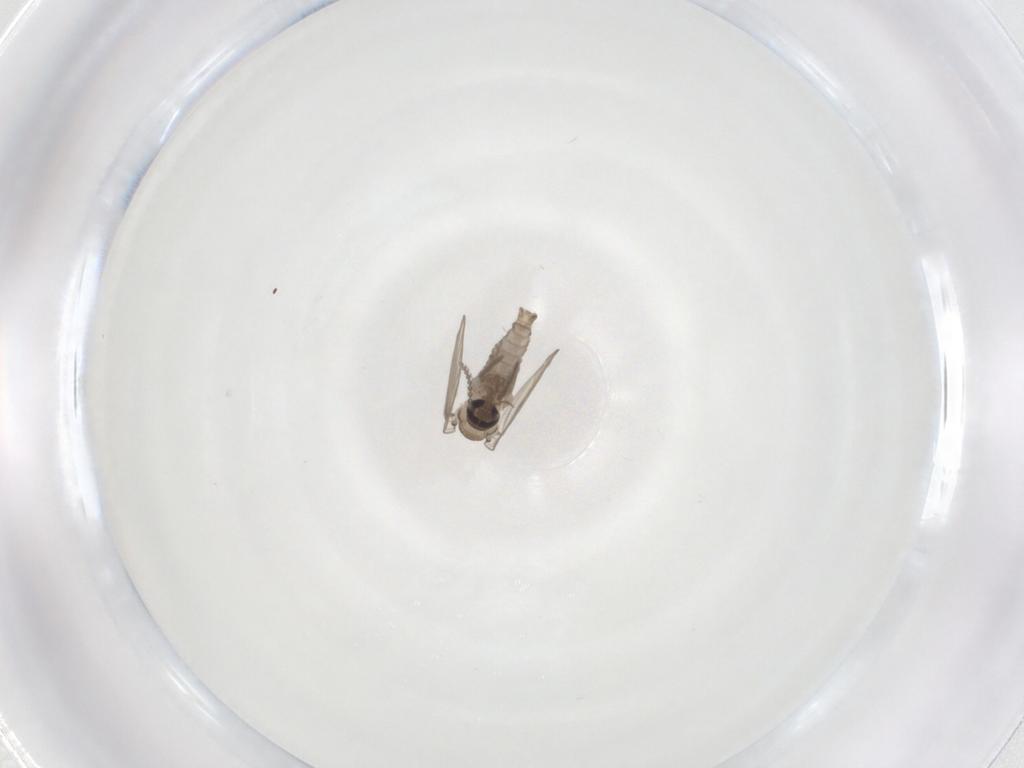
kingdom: Animalia
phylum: Arthropoda
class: Insecta
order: Diptera
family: Psychodidae
